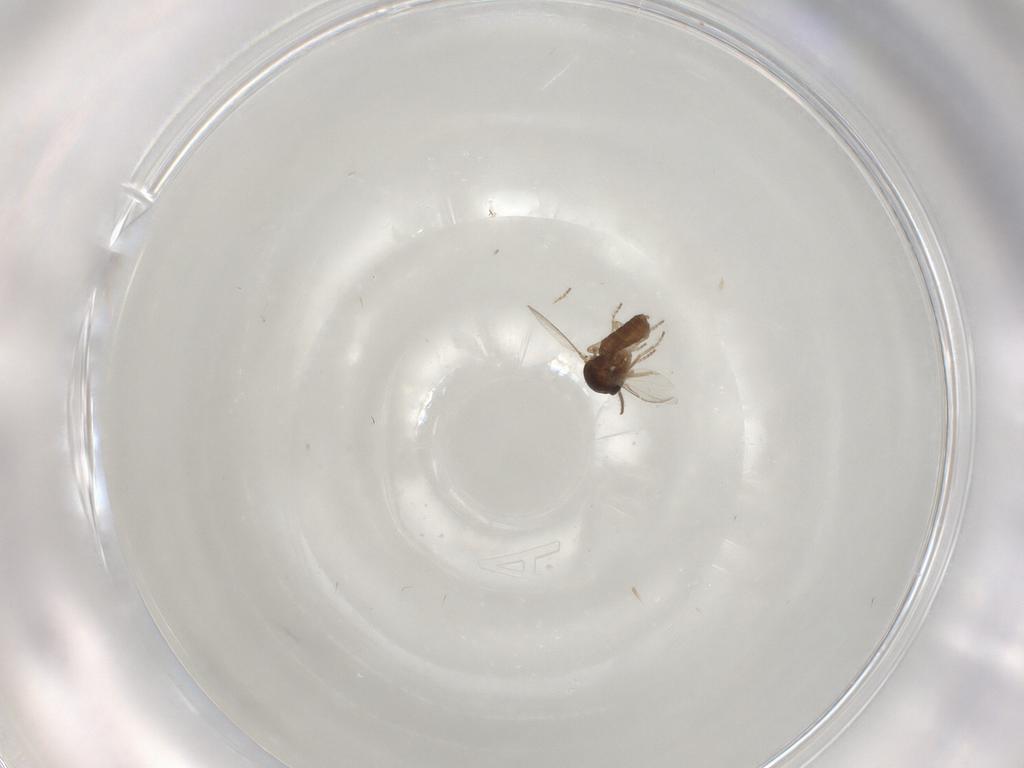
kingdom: Animalia
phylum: Arthropoda
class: Insecta
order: Diptera
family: Ceratopogonidae
